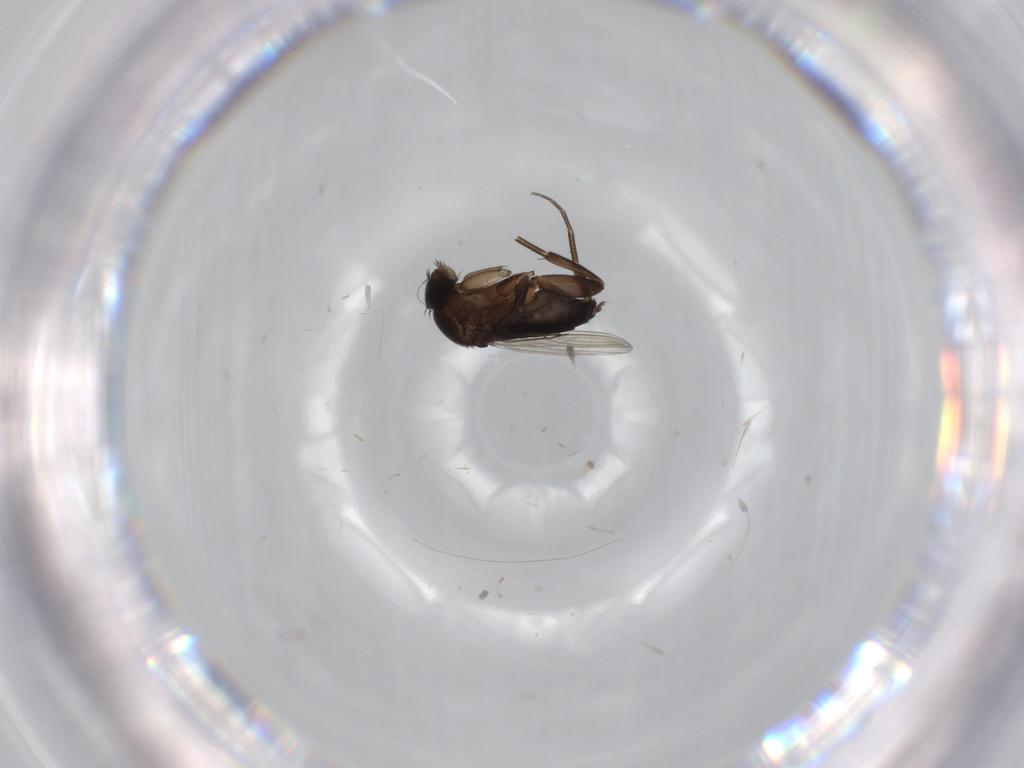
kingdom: Animalia
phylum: Arthropoda
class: Insecta
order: Diptera
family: Phoridae
